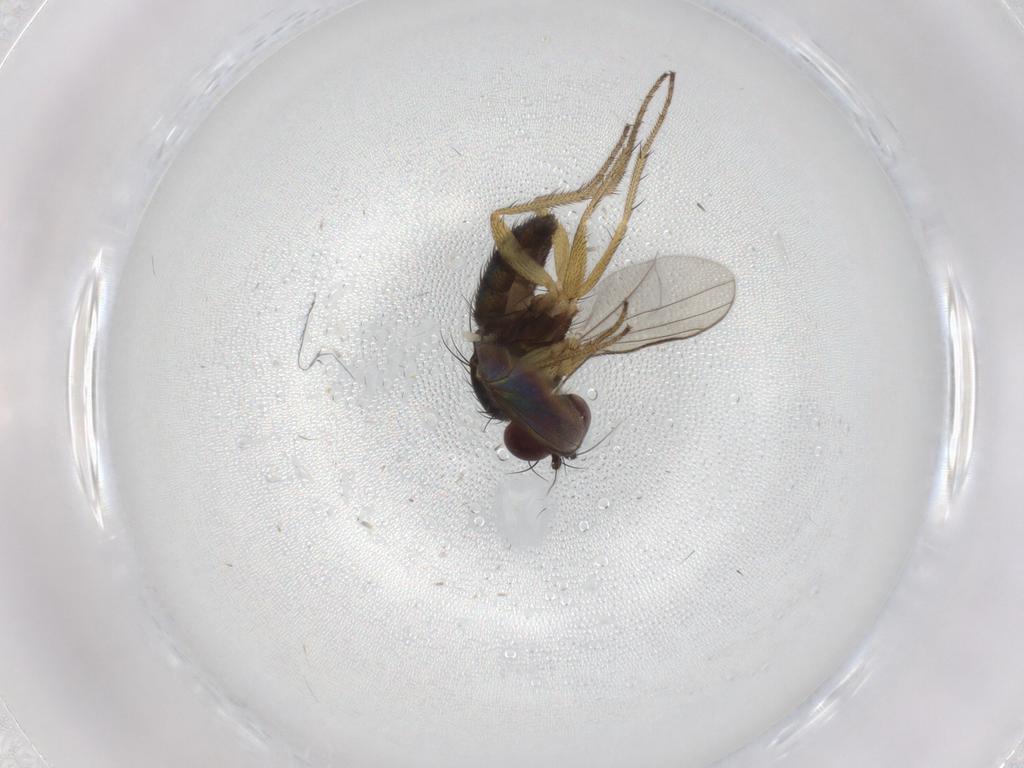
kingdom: Animalia
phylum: Arthropoda
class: Insecta
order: Diptera
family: Dolichopodidae
